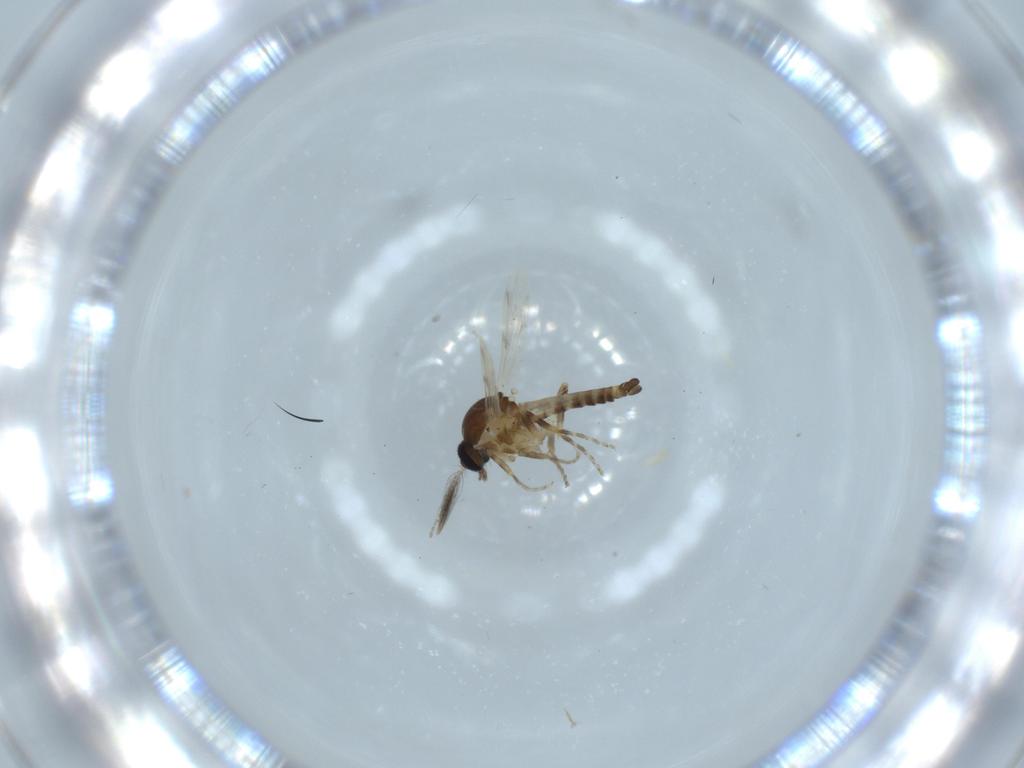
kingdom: Animalia
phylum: Arthropoda
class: Insecta
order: Diptera
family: Ceratopogonidae
